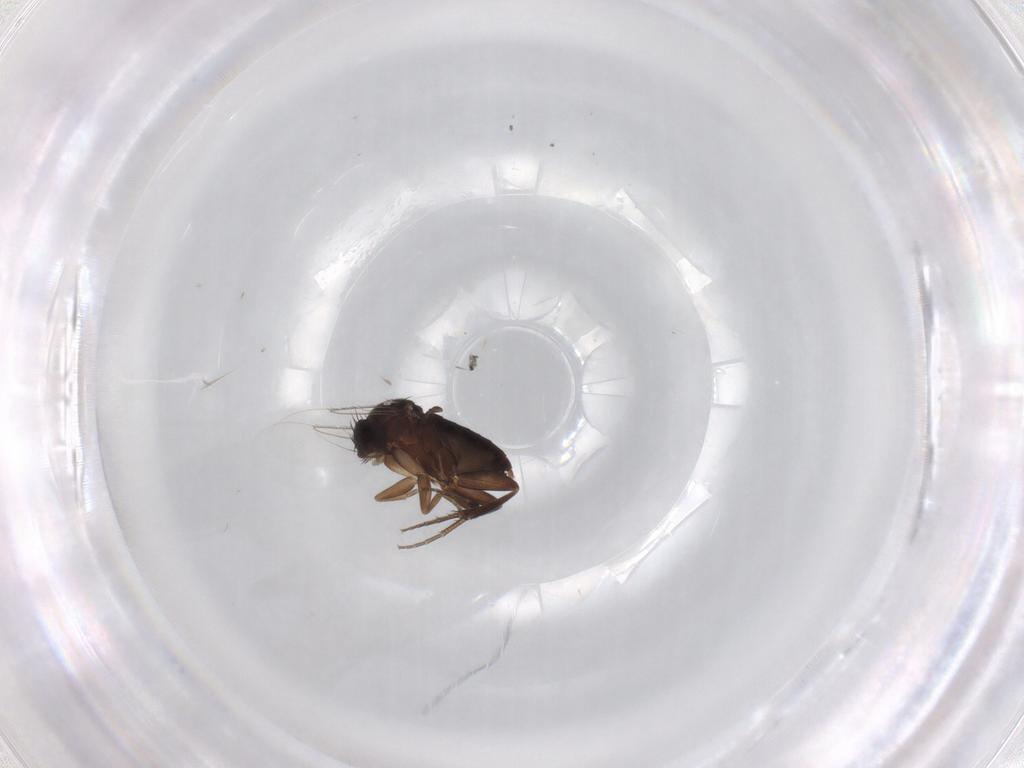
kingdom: Animalia
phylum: Arthropoda
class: Insecta
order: Diptera
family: Phoridae
